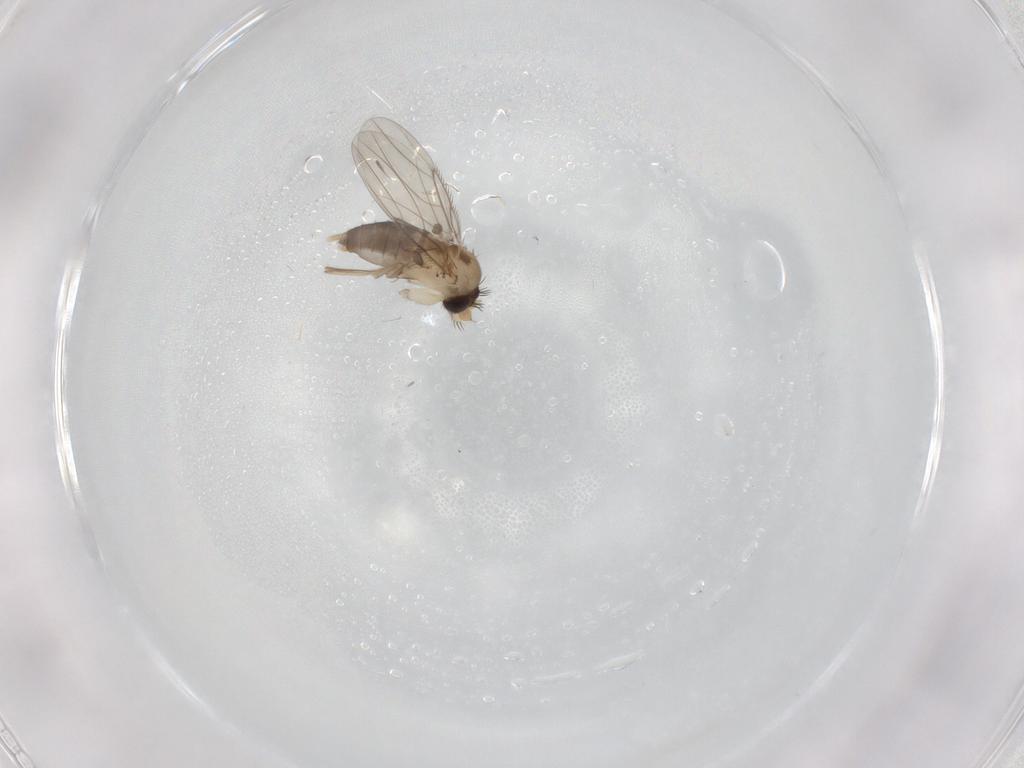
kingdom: Animalia
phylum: Arthropoda
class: Insecta
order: Diptera
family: Phoridae
